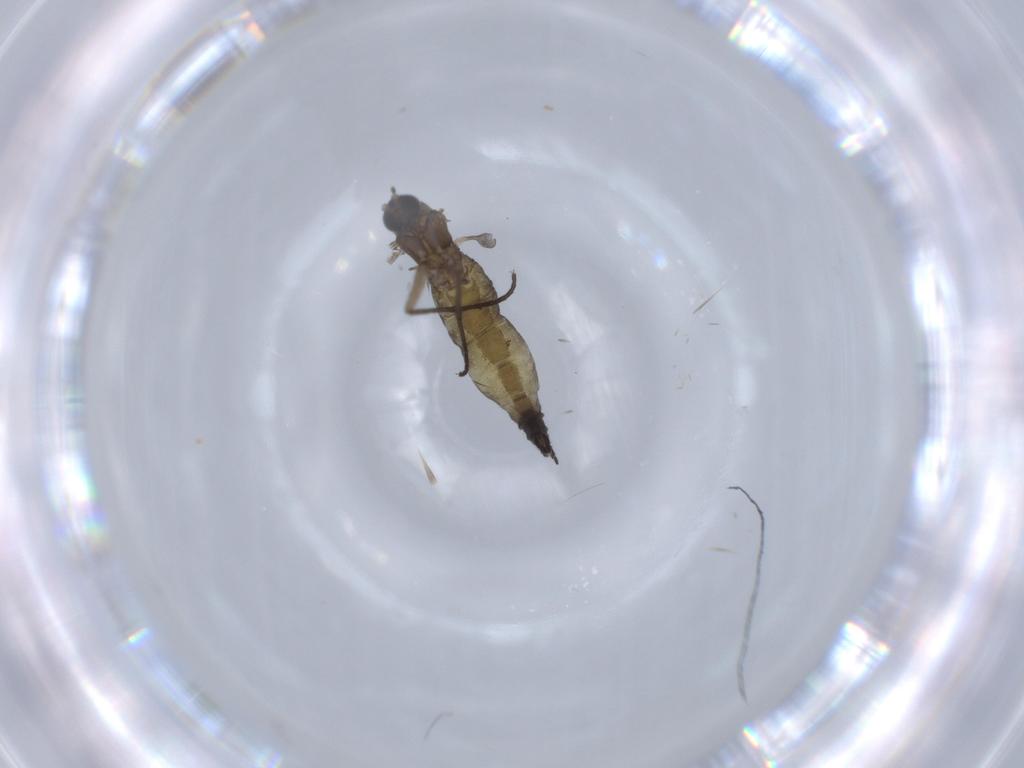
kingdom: Animalia
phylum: Arthropoda
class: Insecta
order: Diptera
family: Sciaridae
